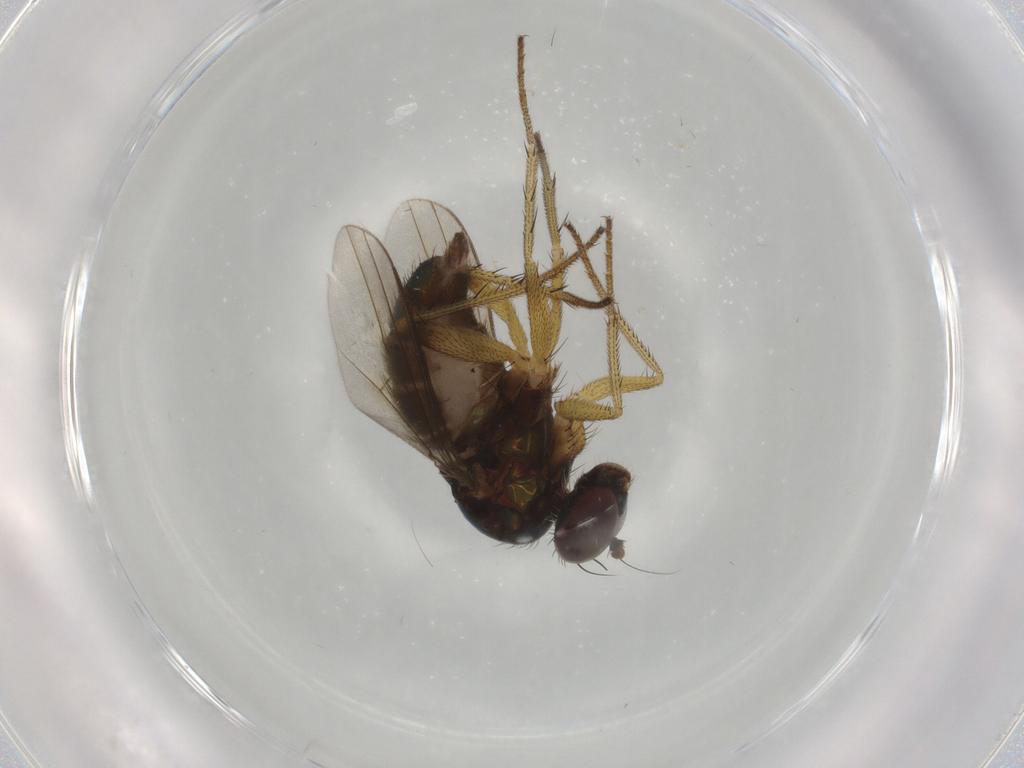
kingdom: Animalia
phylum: Arthropoda
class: Insecta
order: Diptera
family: Dolichopodidae
